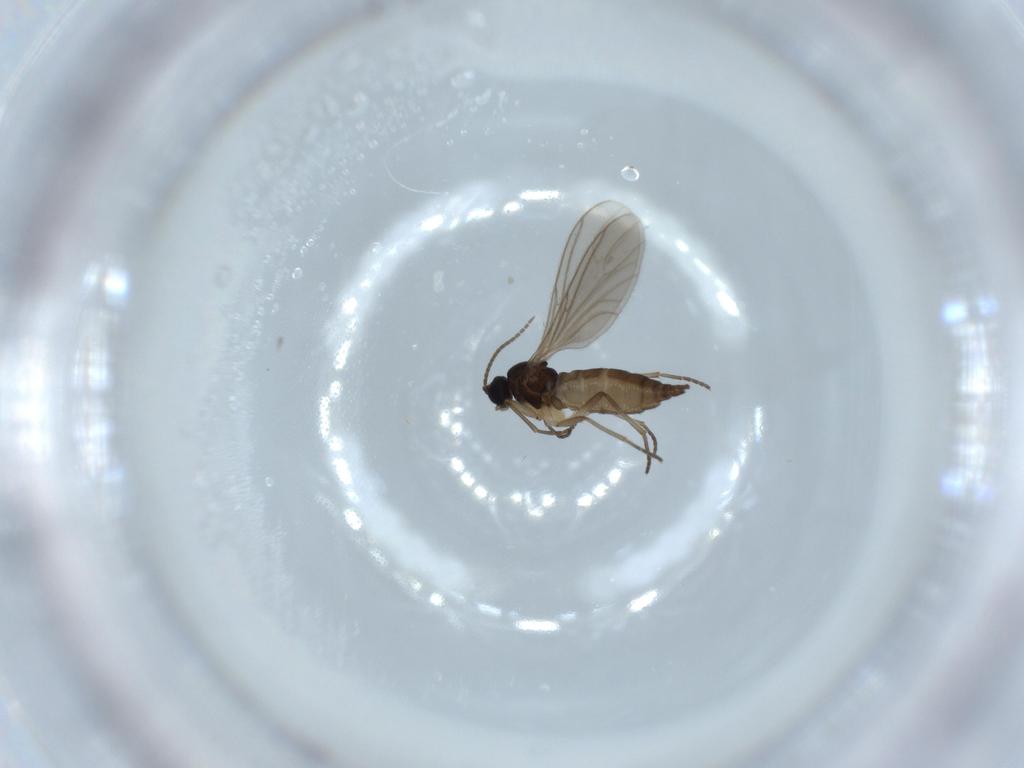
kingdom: Animalia
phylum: Arthropoda
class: Insecta
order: Diptera
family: Sciaridae
